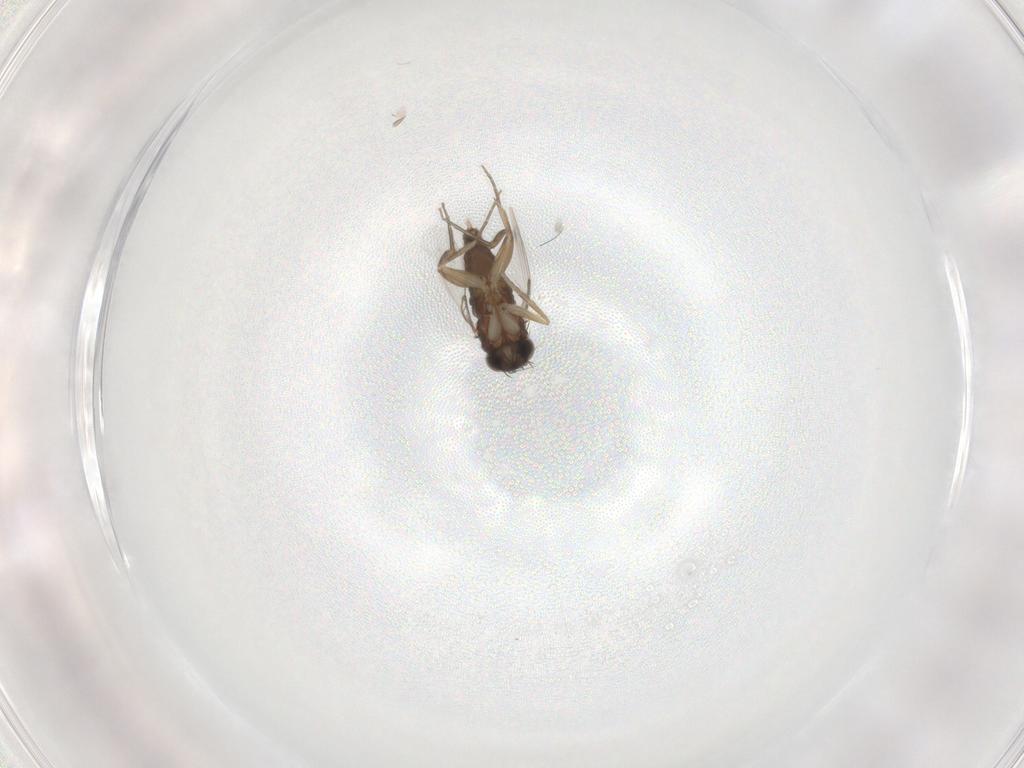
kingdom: Animalia
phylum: Arthropoda
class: Insecta
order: Diptera
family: Phoridae
